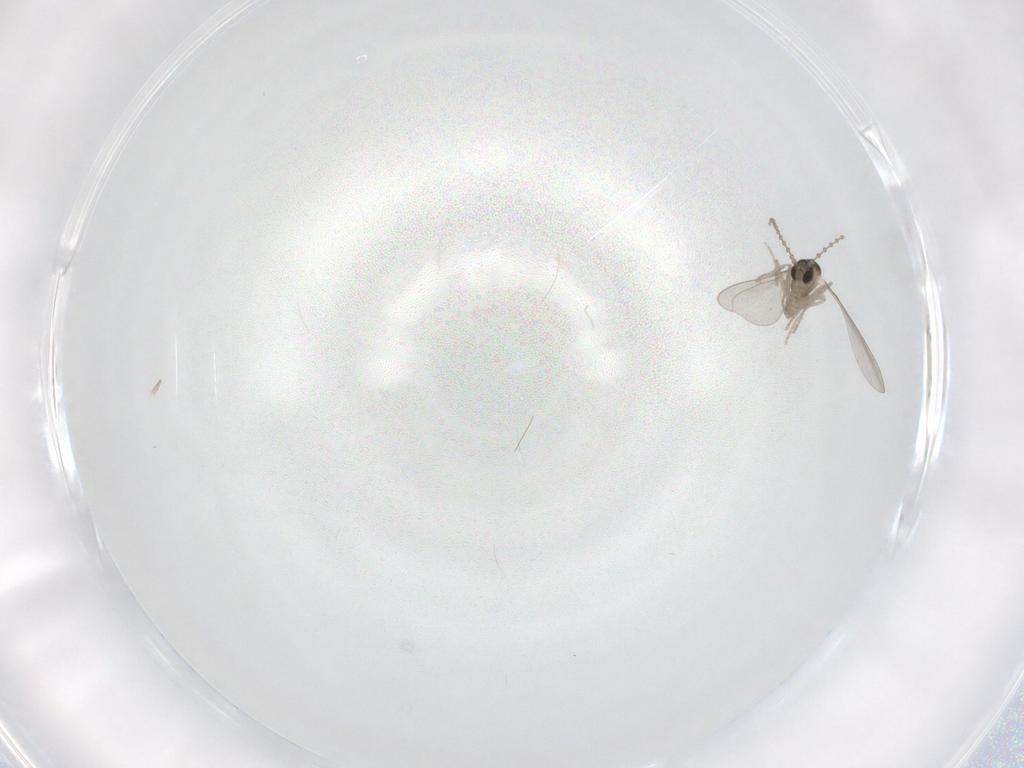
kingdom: Animalia
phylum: Arthropoda
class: Insecta
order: Diptera
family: Cecidomyiidae
